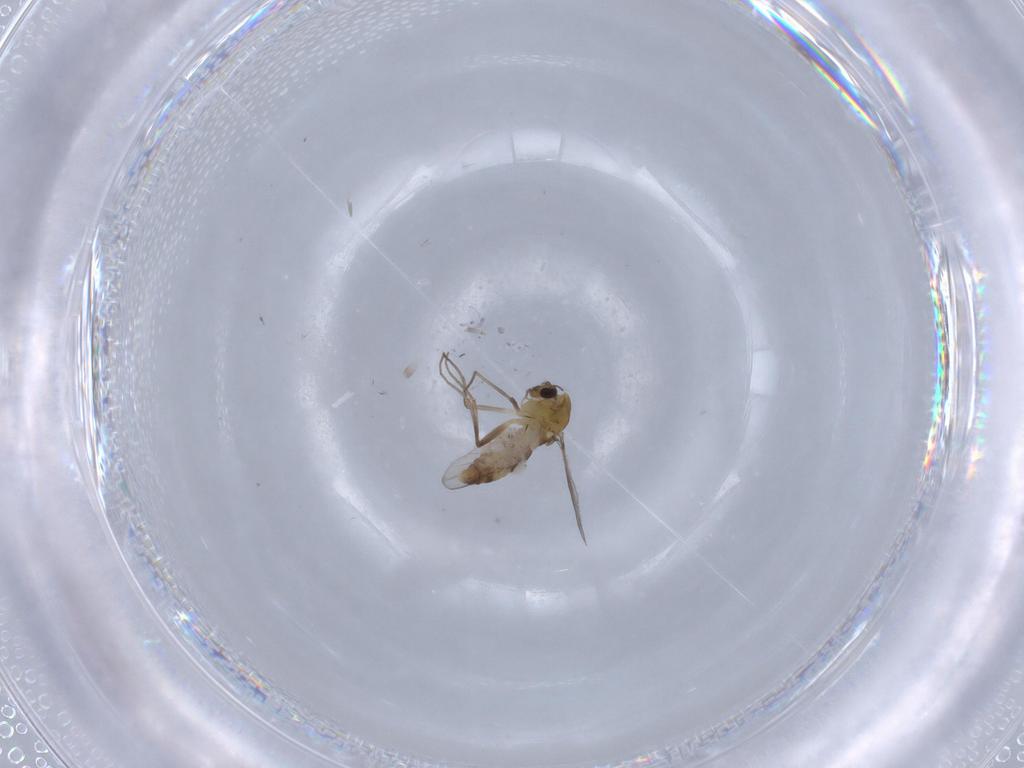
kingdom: Animalia
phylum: Arthropoda
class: Insecta
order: Diptera
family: Chironomidae
